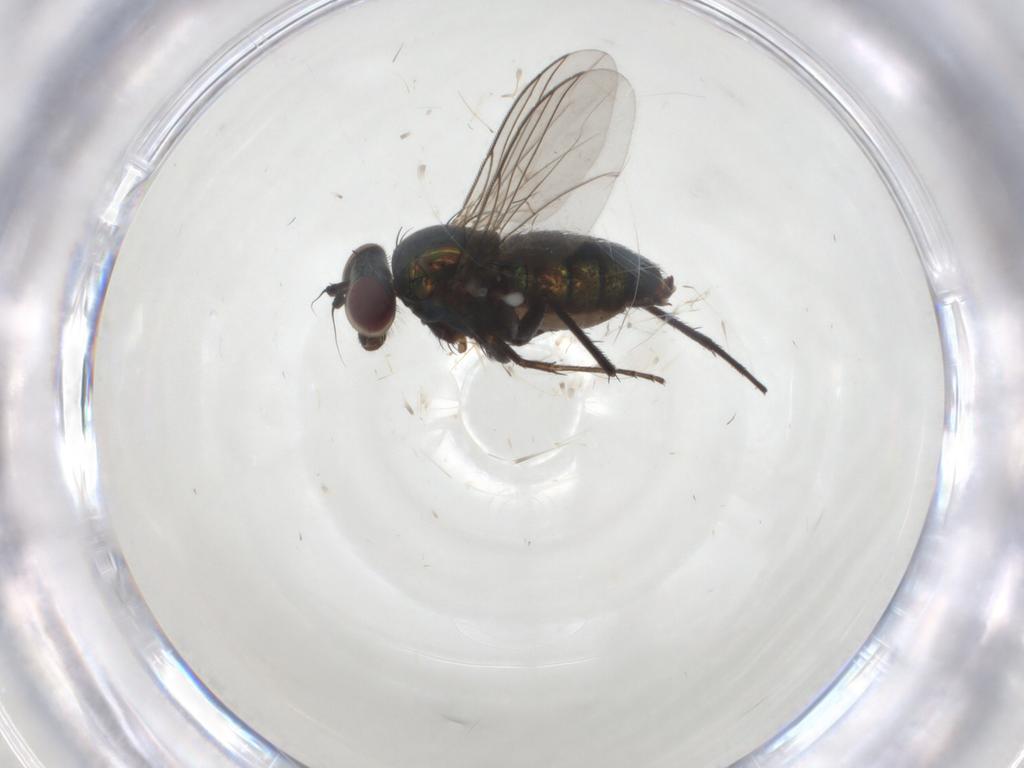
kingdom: Animalia
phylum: Arthropoda
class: Insecta
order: Diptera
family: Dolichopodidae
